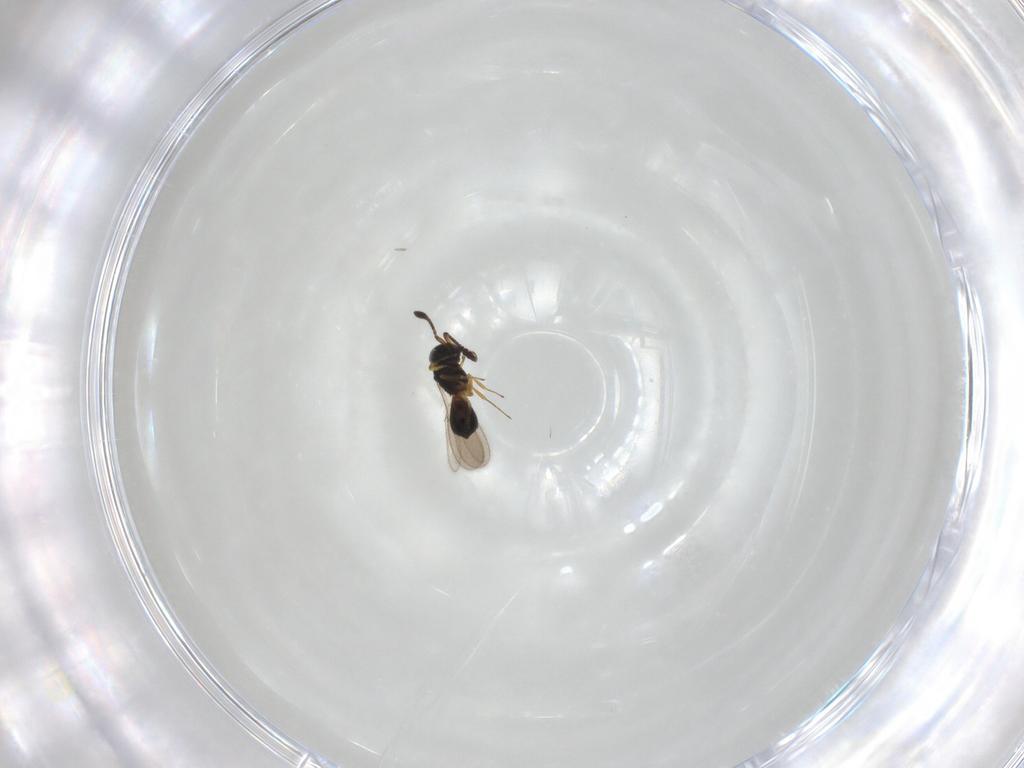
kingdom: Animalia
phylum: Arthropoda
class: Insecta
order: Hymenoptera
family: Scelionidae
